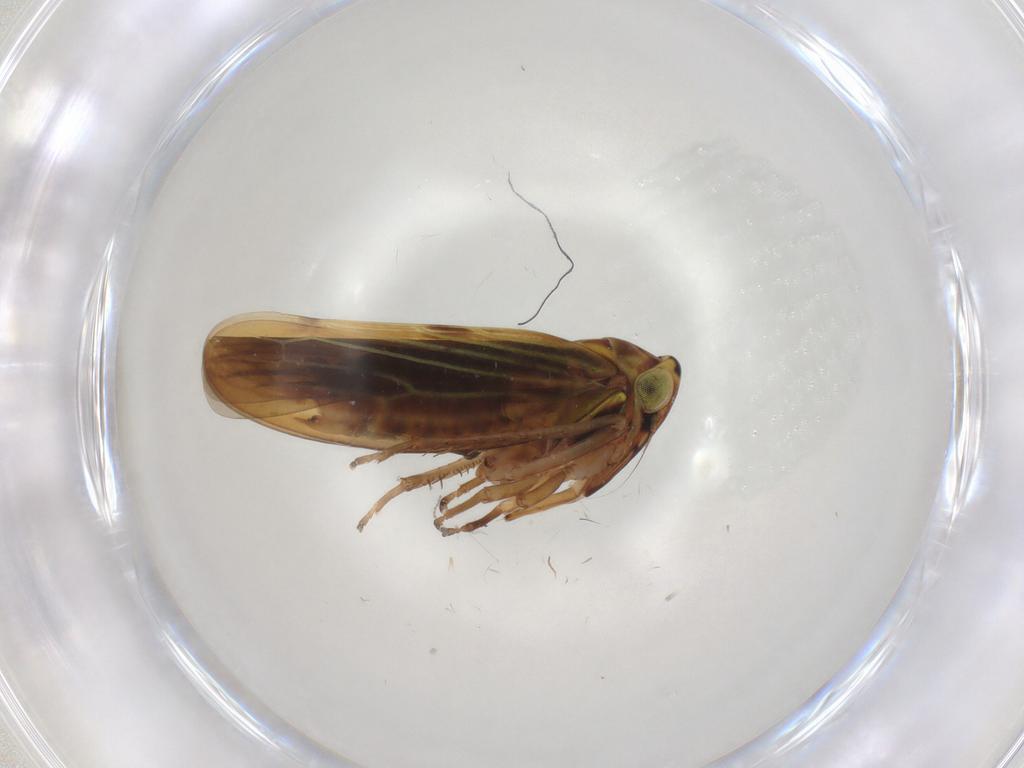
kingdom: Animalia
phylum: Arthropoda
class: Insecta
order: Hemiptera
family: Cicadellidae
